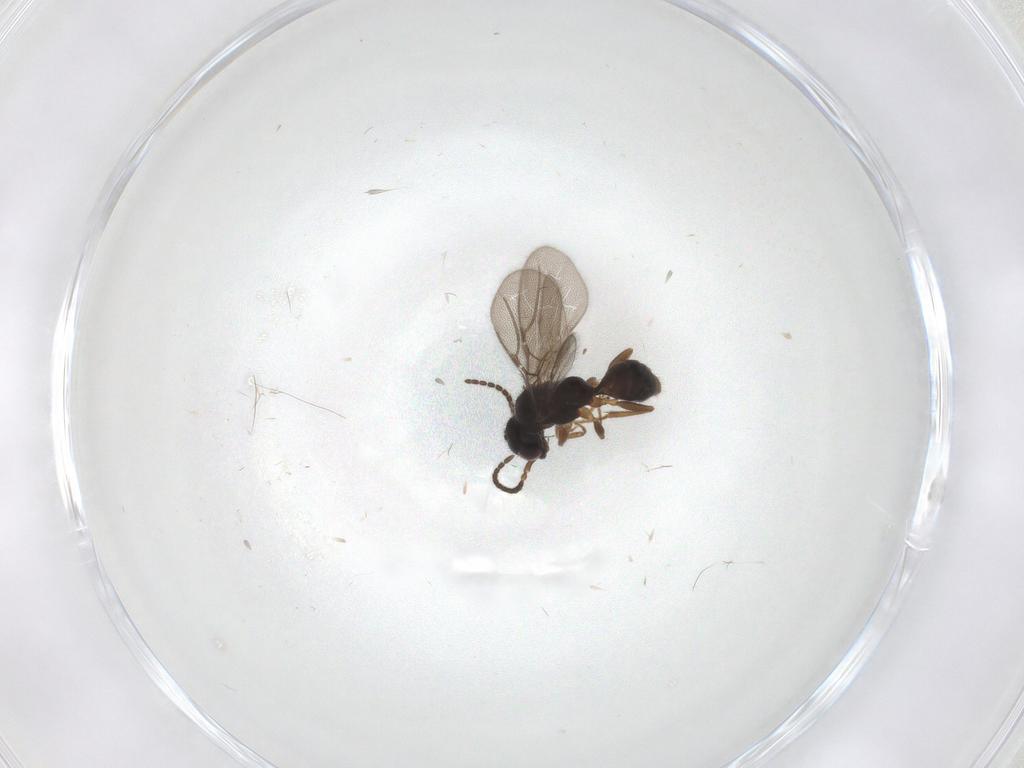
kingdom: Animalia
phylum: Arthropoda
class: Insecta
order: Hymenoptera
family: Bethylidae
